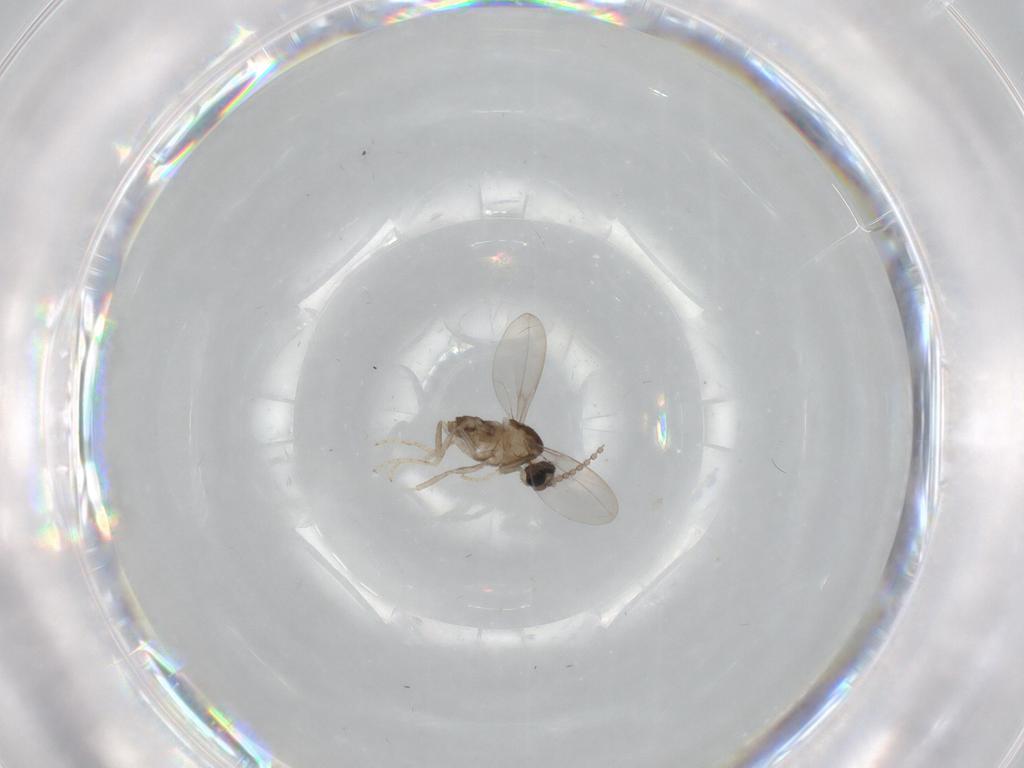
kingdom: Animalia
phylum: Arthropoda
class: Insecta
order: Diptera
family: Cecidomyiidae
